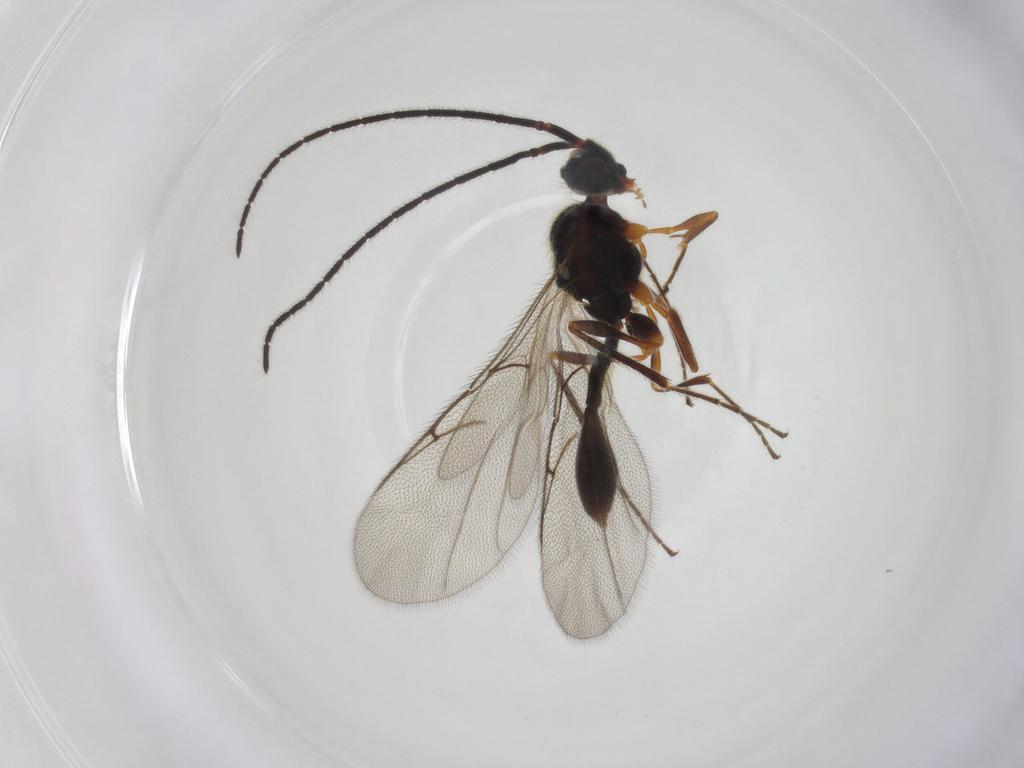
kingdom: Animalia
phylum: Arthropoda
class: Insecta
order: Hymenoptera
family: Diapriidae
